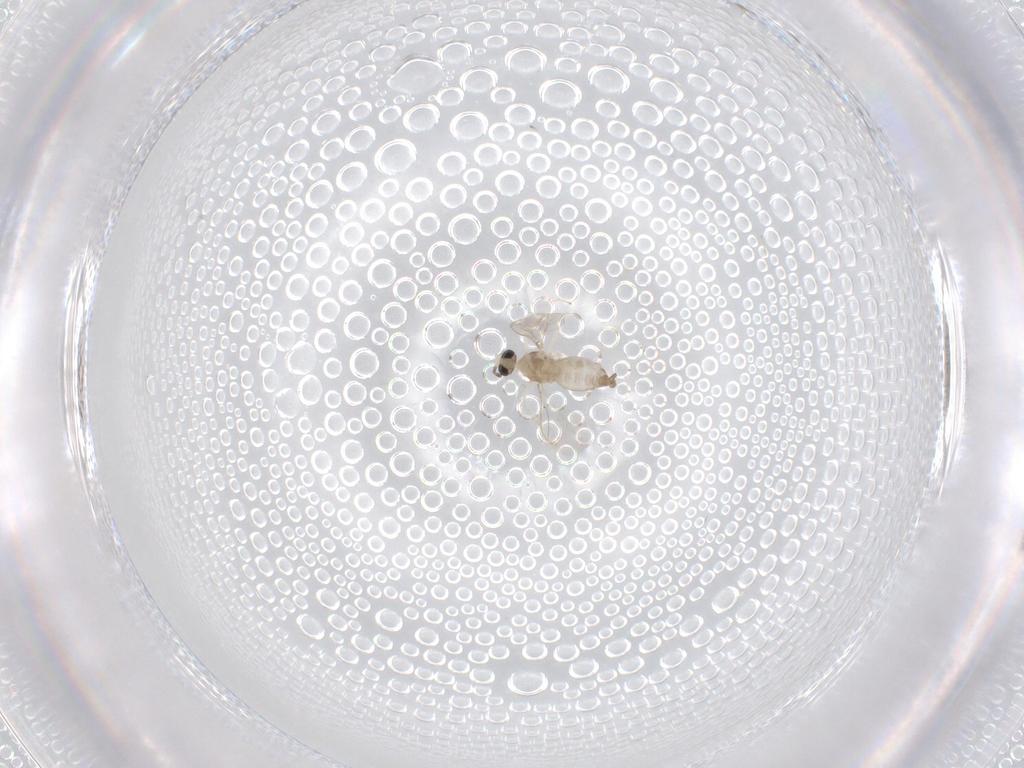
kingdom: Animalia
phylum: Arthropoda
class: Insecta
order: Diptera
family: Cecidomyiidae
